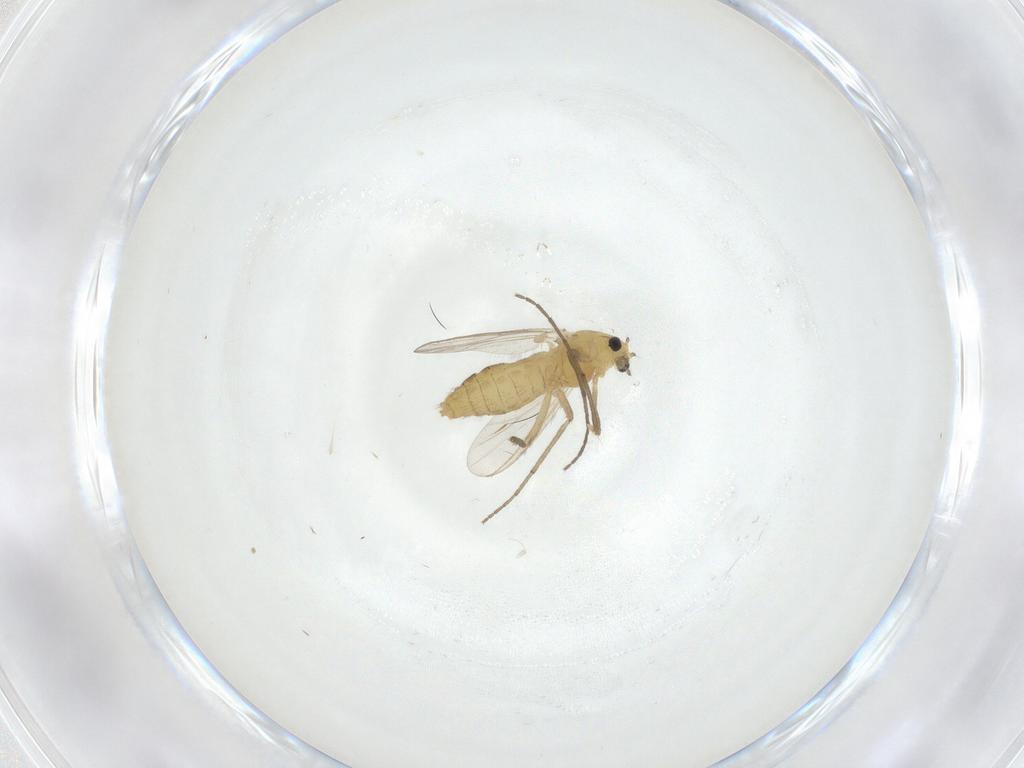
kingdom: Animalia
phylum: Arthropoda
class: Insecta
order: Diptera
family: Chironomidae
